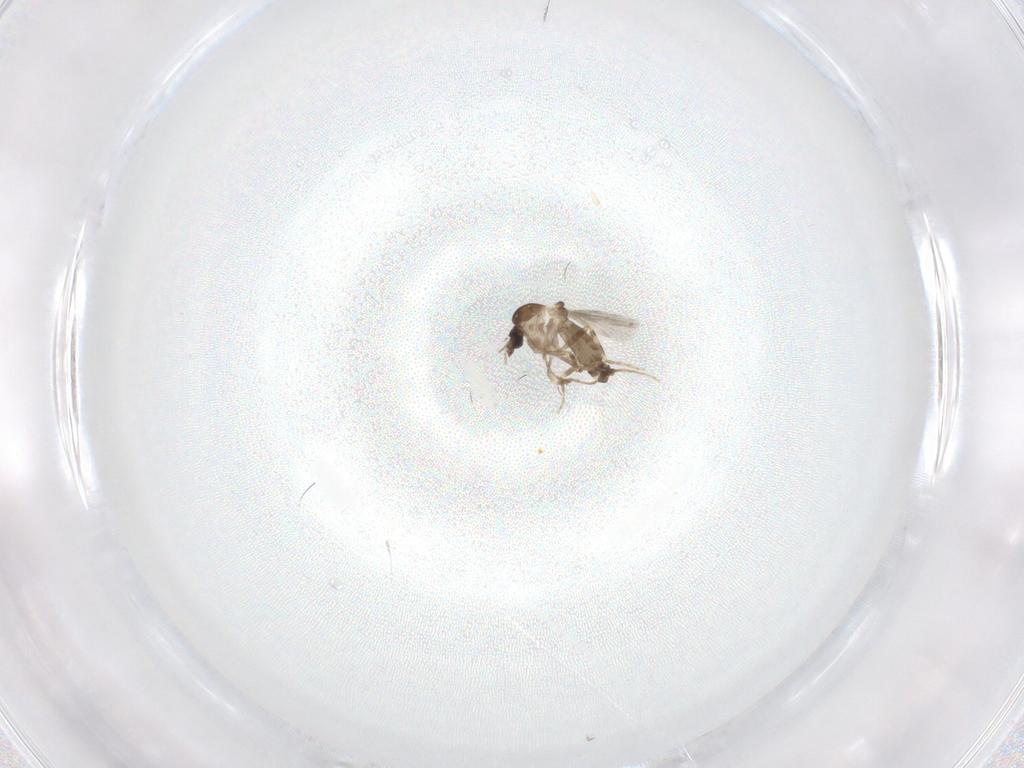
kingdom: Animalia
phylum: Arthropoda
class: Insecta
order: Diptera
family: Ceratopogonidae
